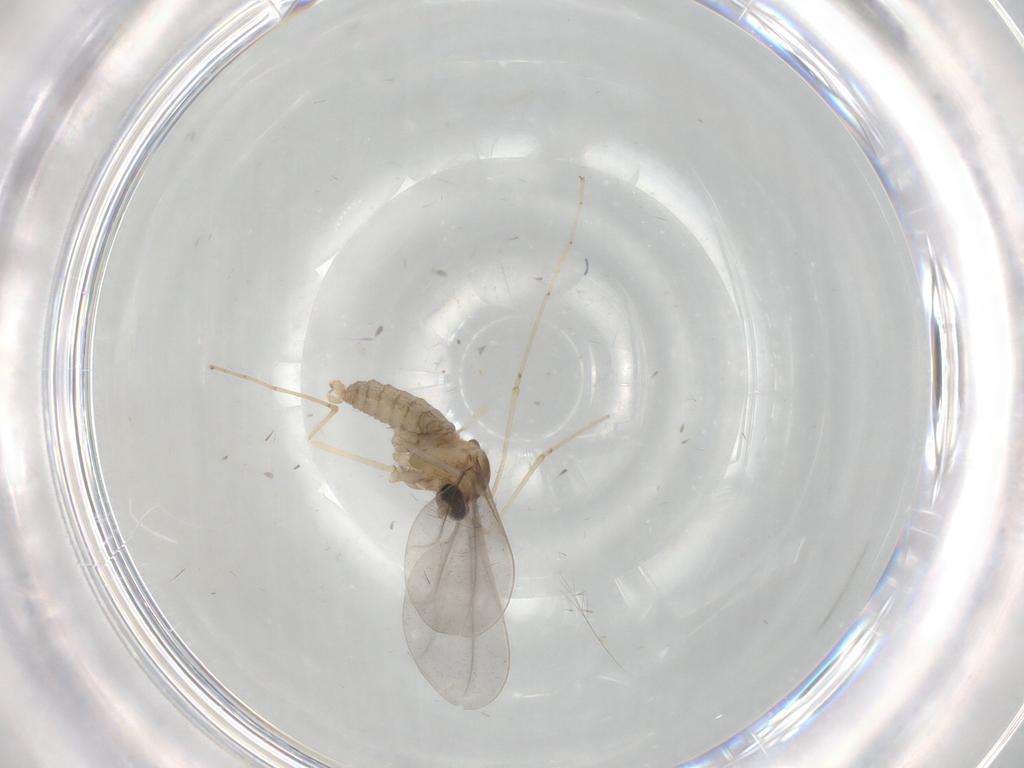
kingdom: Animalia
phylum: Arthropoda
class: Insecta
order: Diptera
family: Cecidomyiidae
